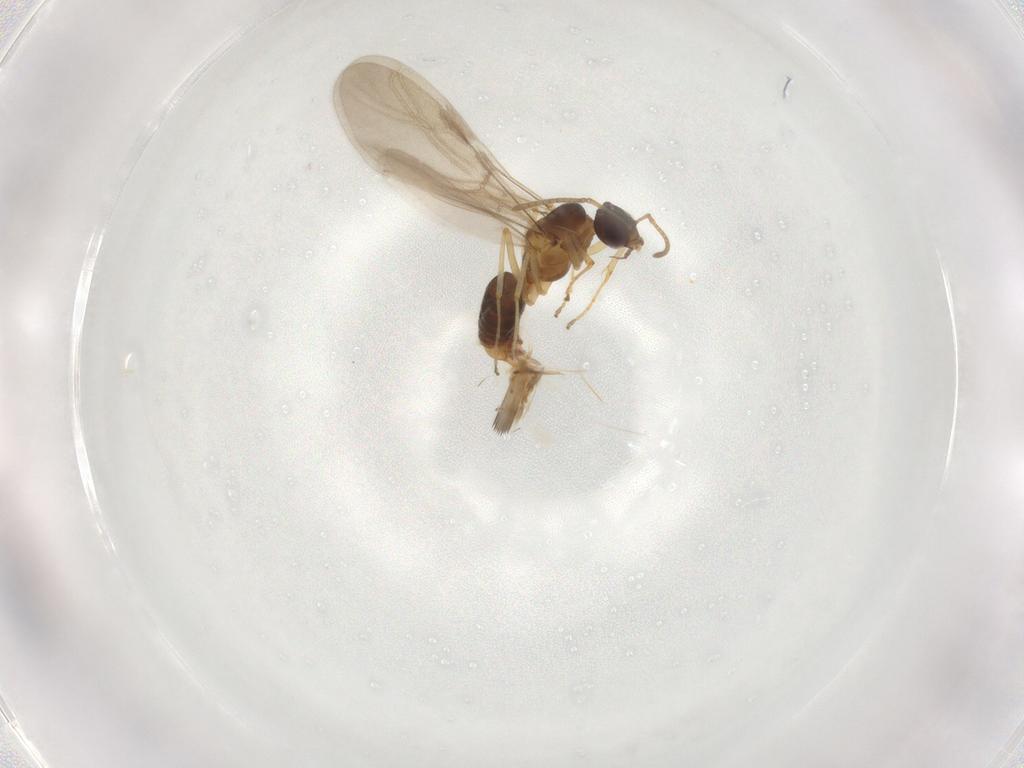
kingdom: Animalia
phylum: Arthropoda
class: Insecta
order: Hymenoptera
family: Formicidae
